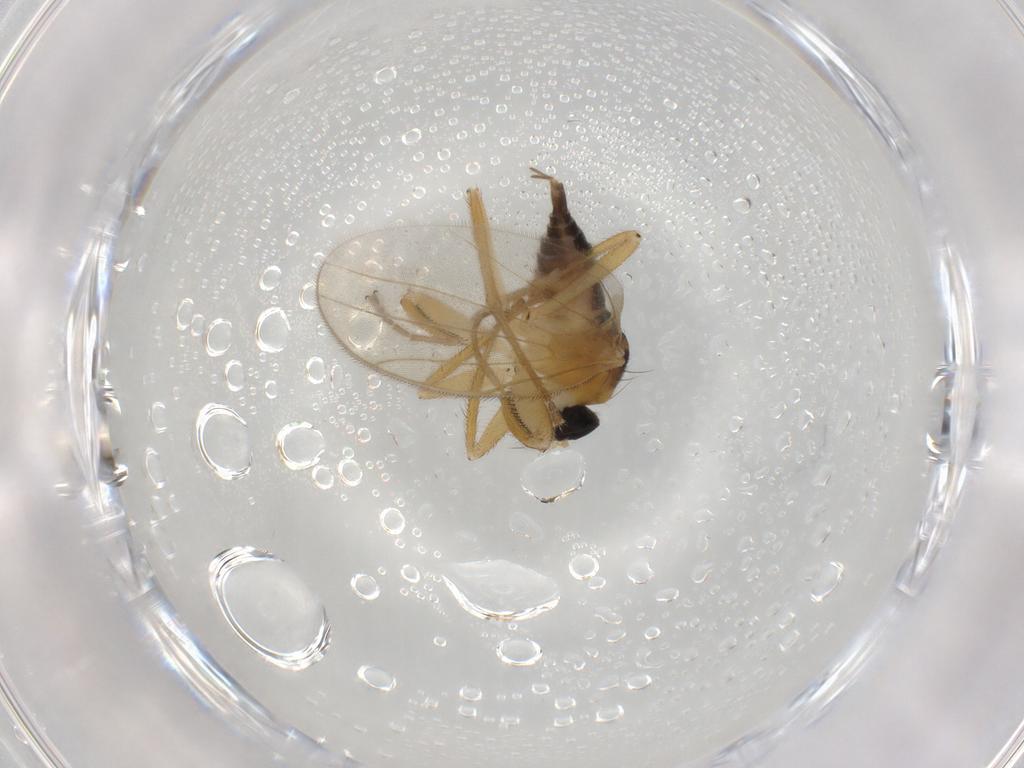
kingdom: Animalia
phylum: Arthropoda
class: Insecta
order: Diptera
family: Hybotidae
